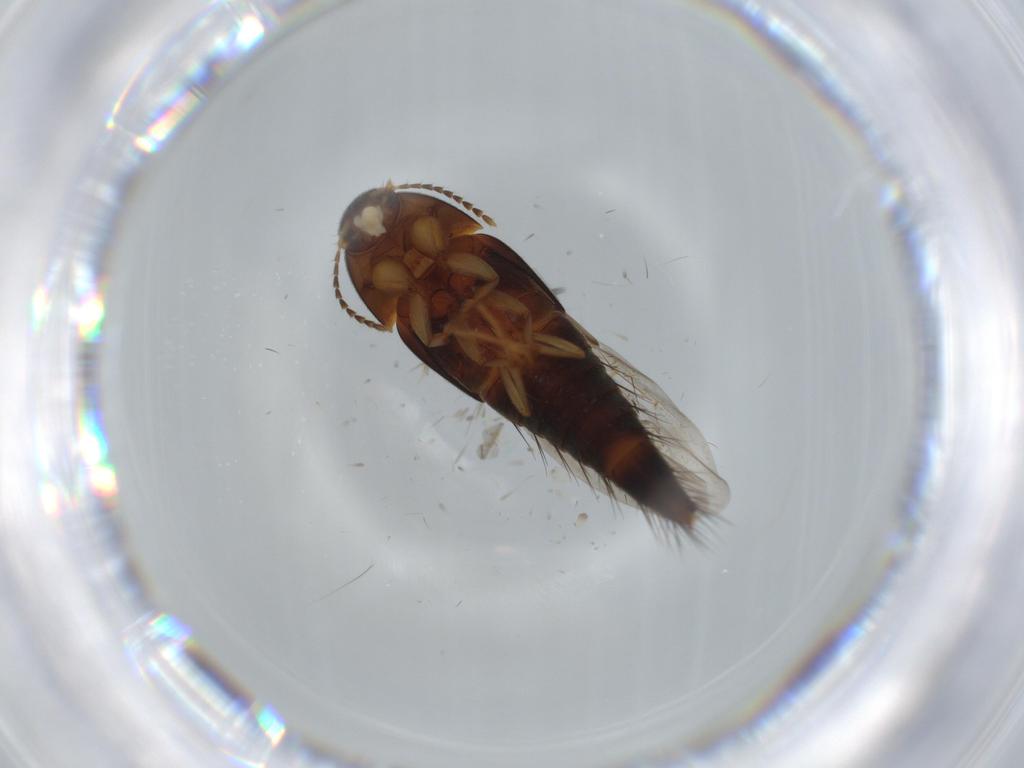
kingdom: Animalia
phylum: Arthropoda
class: Insecta
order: Coleoptera
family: Staphylinidae
